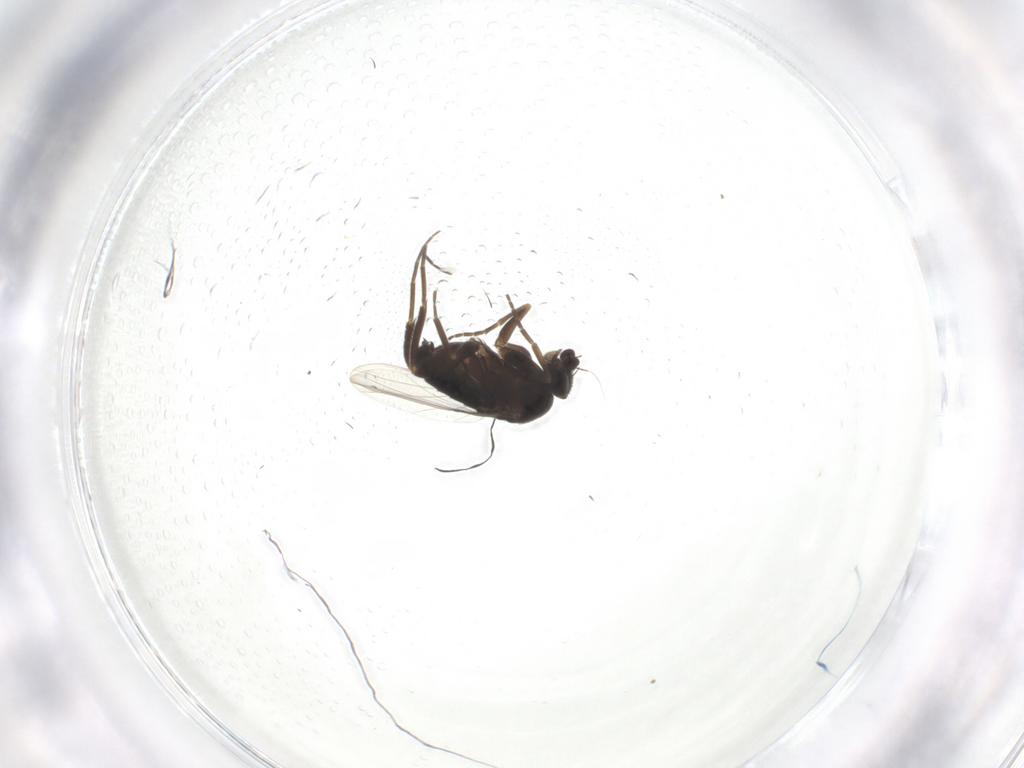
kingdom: Animalia
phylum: Arthropoda
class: Insecta
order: Diptera
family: Phoridae
